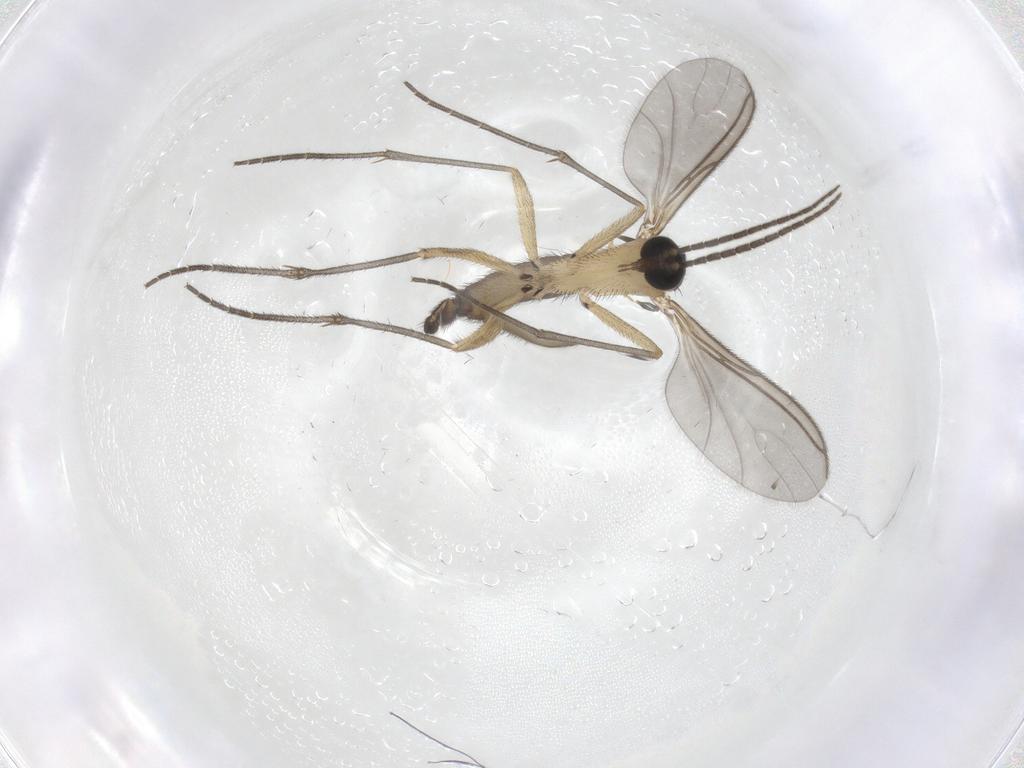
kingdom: Animalia
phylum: Arthropoda
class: Insecta
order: Diptera
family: Sciaridae
